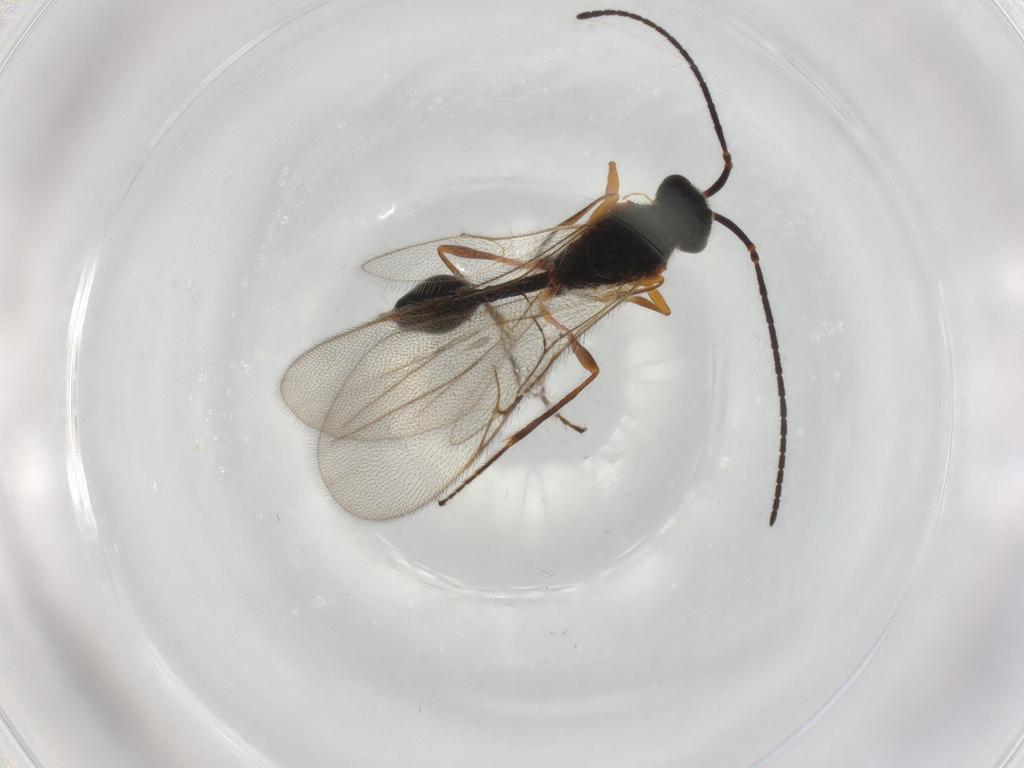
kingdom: Animalia
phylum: Arthropoda
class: Insecta
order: Hymenoptera
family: Diapriidae
